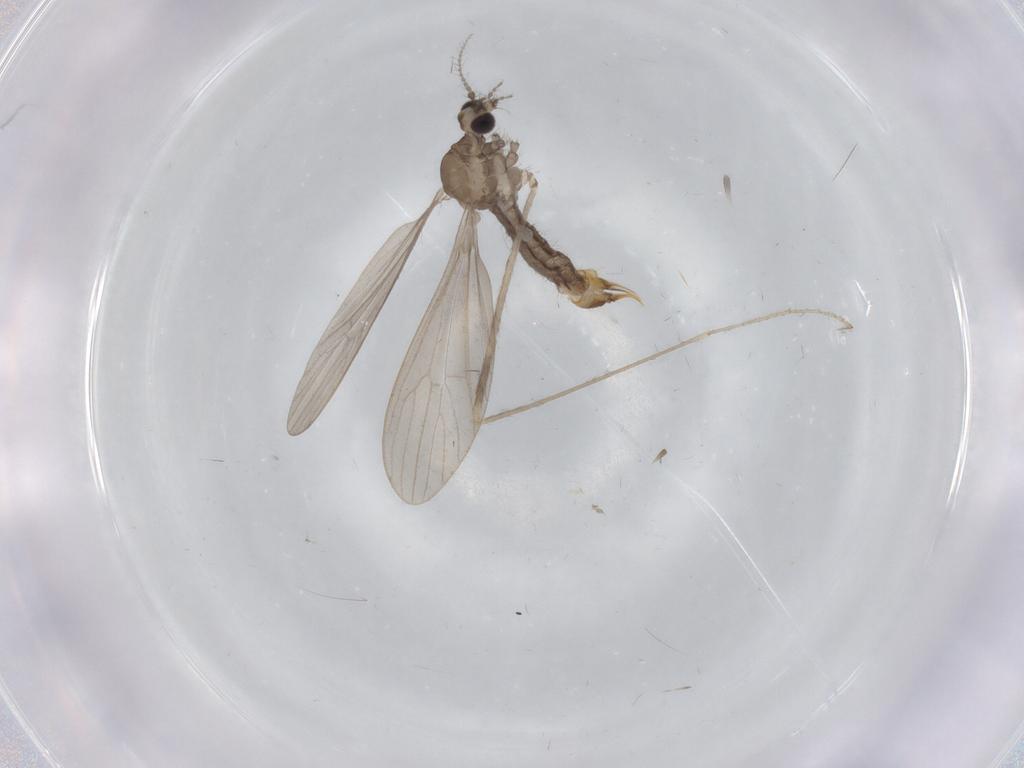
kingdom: Animalia
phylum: Arthropoda
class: Insecta
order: Diptera
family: Limoniidae
